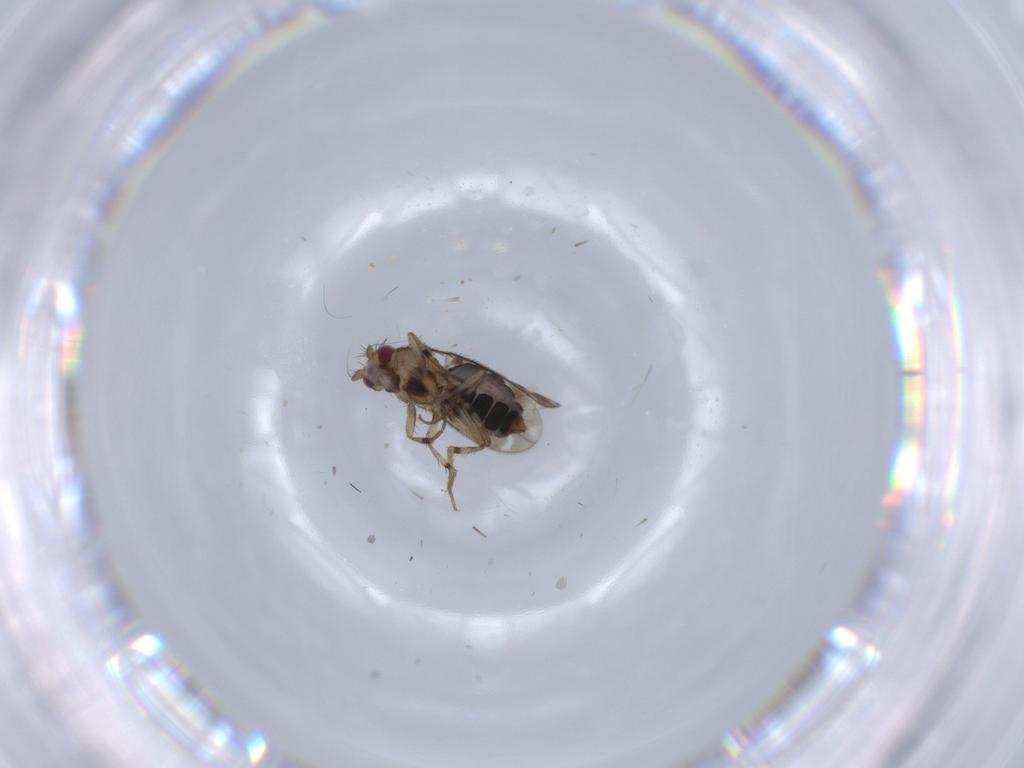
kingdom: Animalia
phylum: Arthropoda
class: Insecta
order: Diptera
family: Sphaeroceridae
